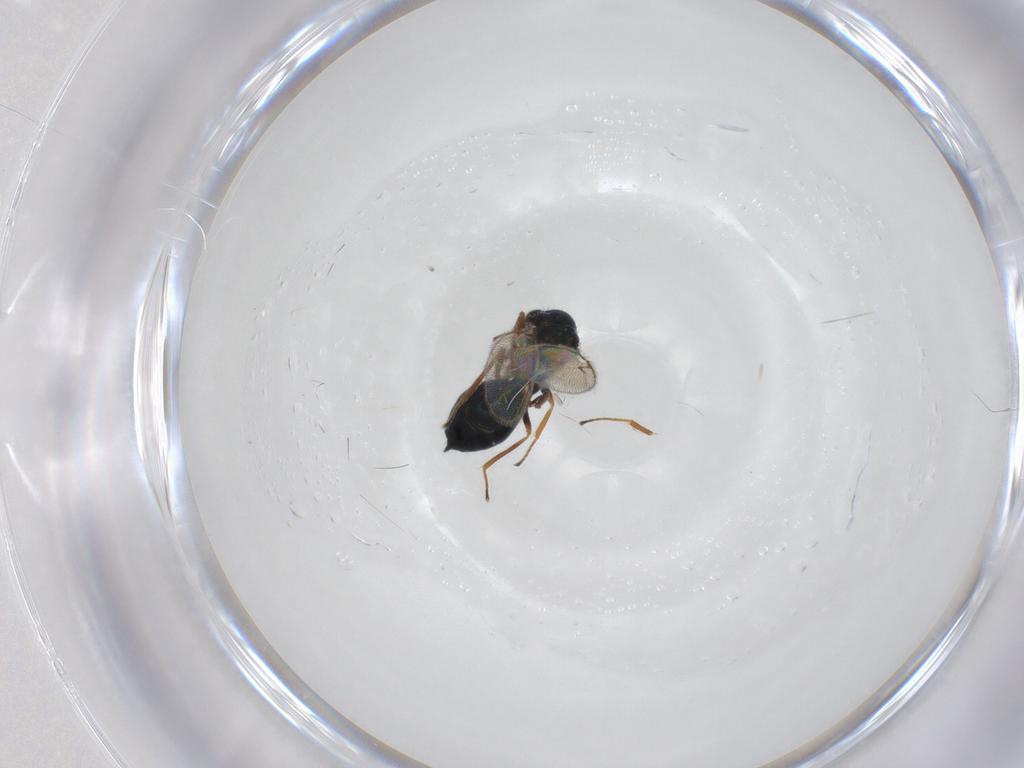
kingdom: Animalia
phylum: Arthropoda
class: Insecta
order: Hymenoptera
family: Chalcidoidea_incertae_sedis
